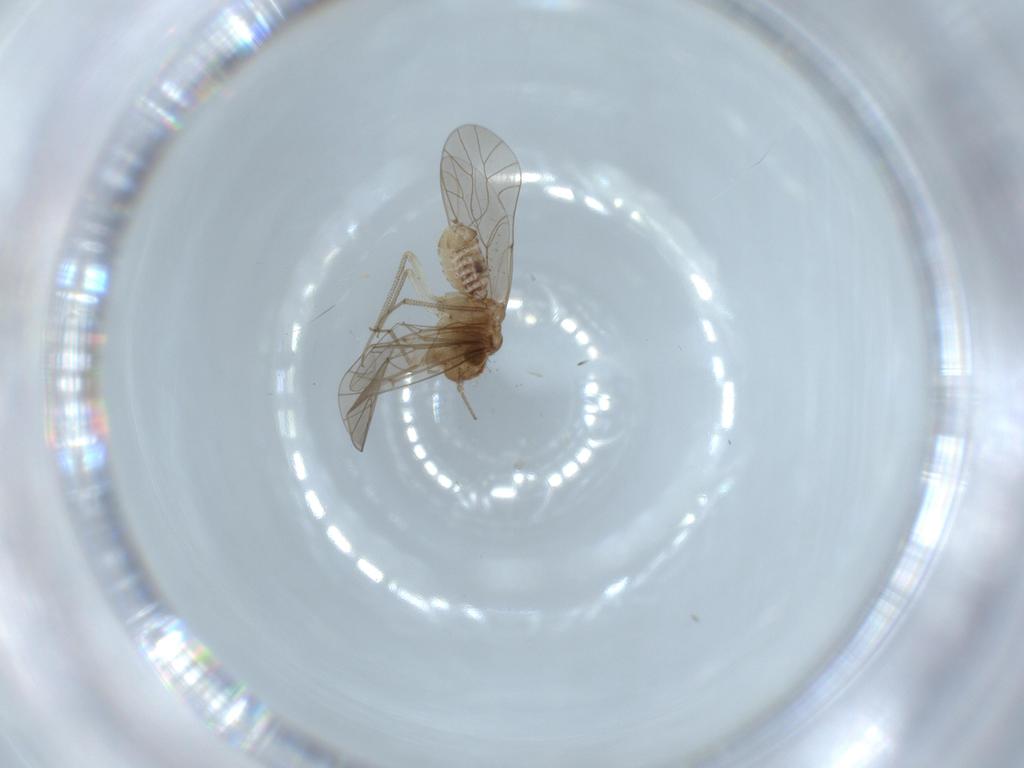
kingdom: Animalia
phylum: Arthropoda
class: Insecta
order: Psocodea
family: Lachesillidae
